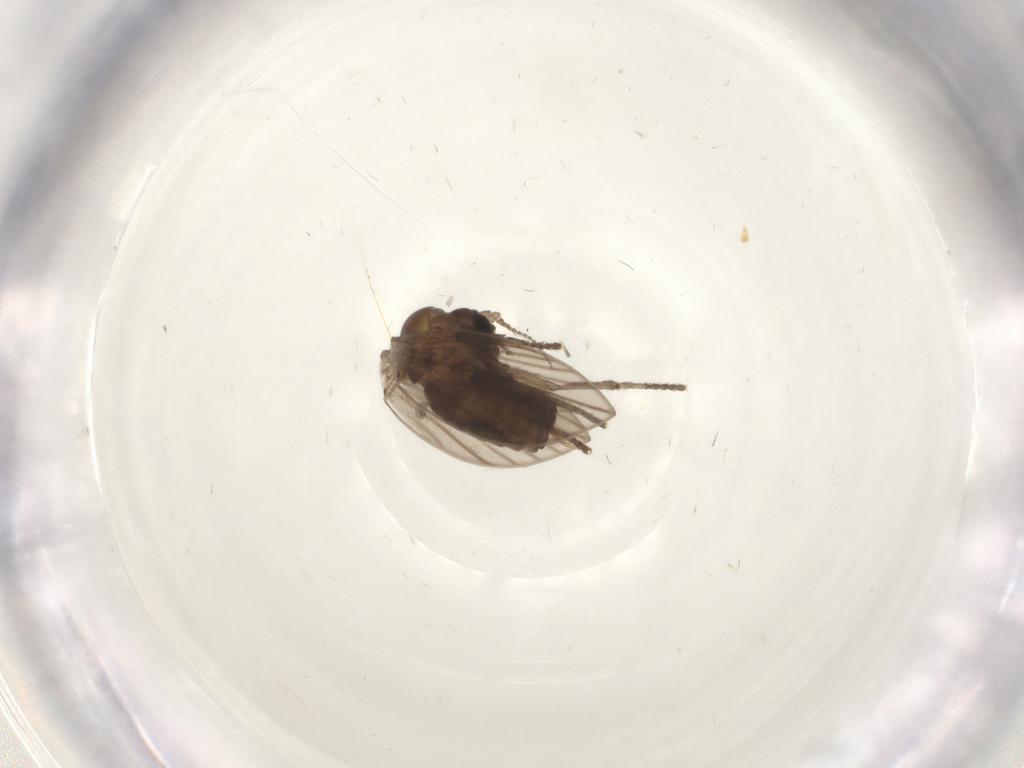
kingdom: Animalia
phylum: Arthropoda
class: Insecta
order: Diptera
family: Psychodidae
